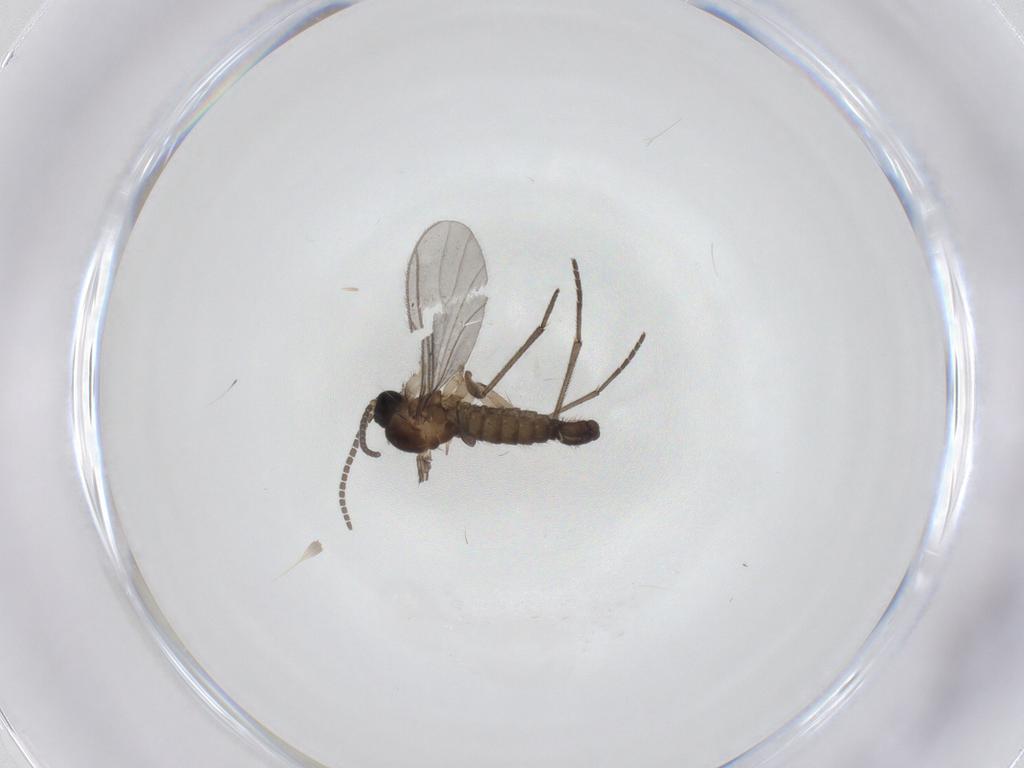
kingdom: Animalia
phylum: Arthropoda
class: Insecta
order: Diptera
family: Sciaridae
